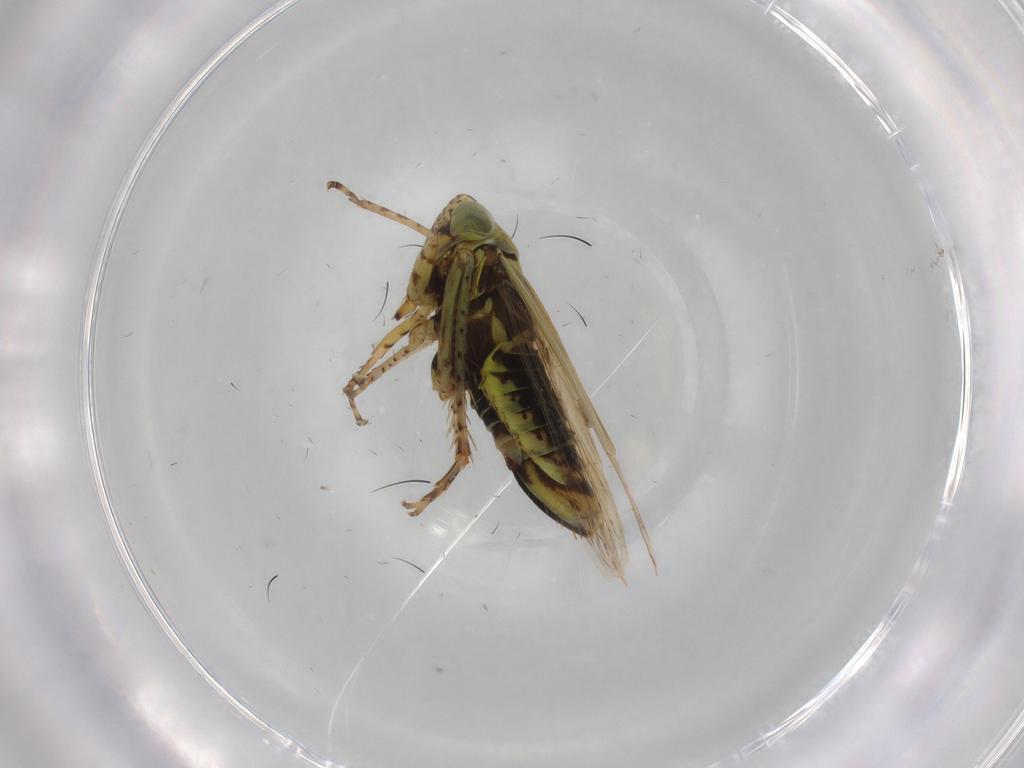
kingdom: Animalia
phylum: Arthropoda
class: Insecta
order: Hemiptera
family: Cicadellidae
